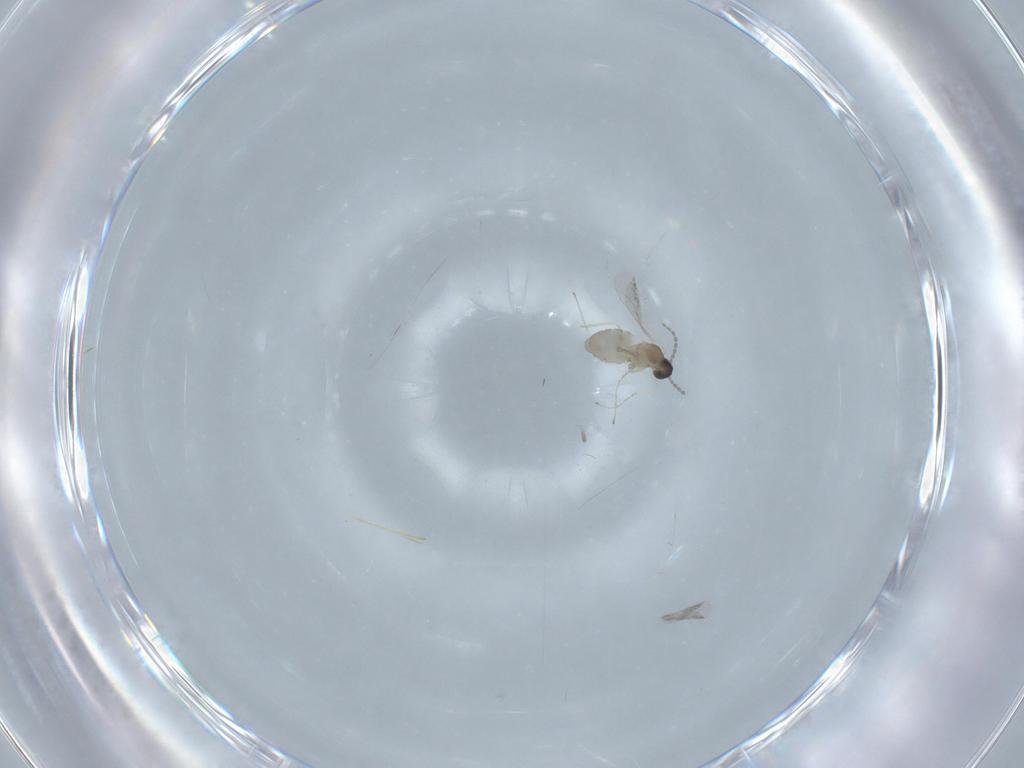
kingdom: Animalia
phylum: Arthropoda
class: Insecta
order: Diptera
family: Cecidomyiidae
